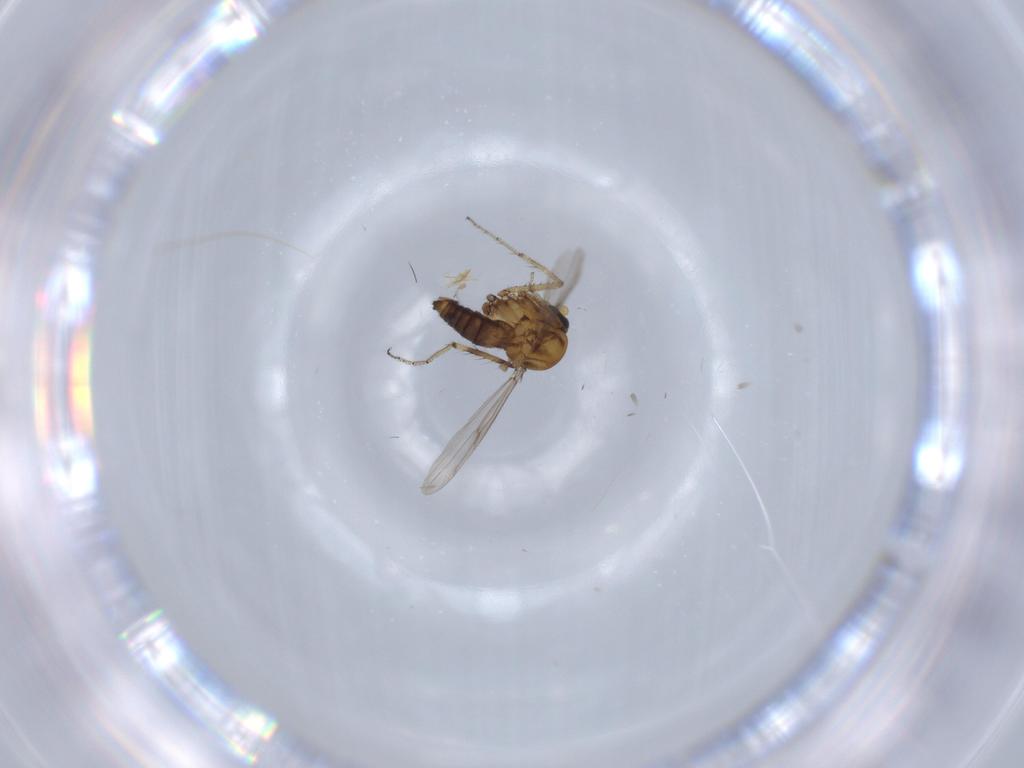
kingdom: Animalia
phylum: Arthropoda
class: Insecta
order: Diptera
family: Ceratopogonidae
